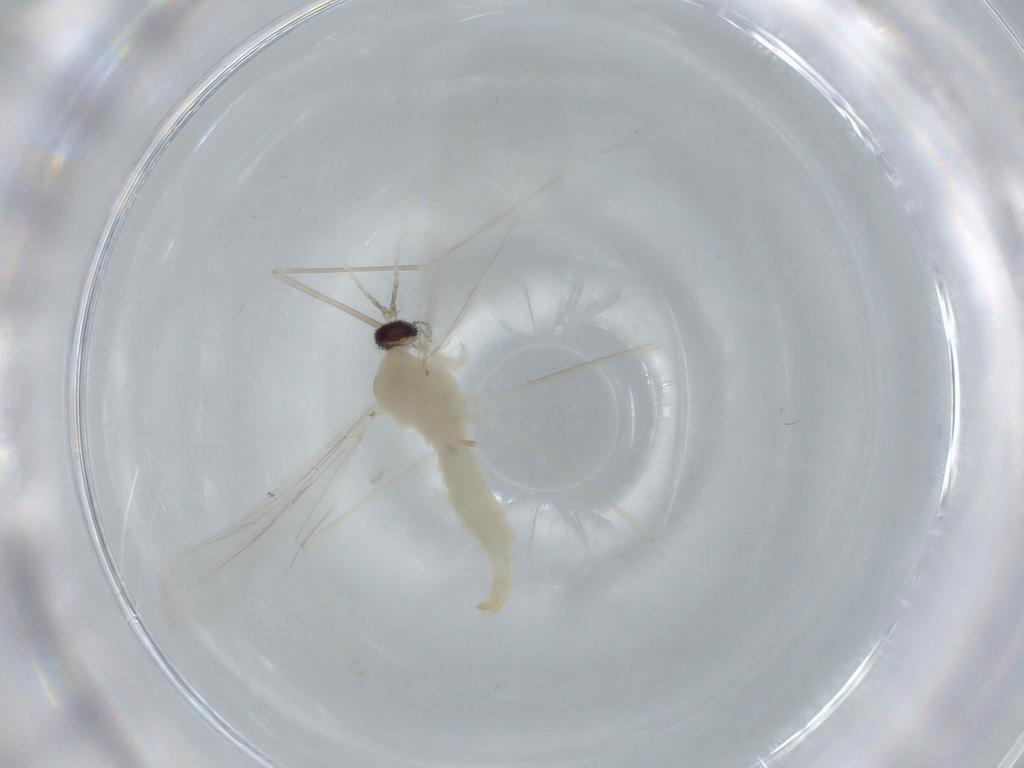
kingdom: Animalia
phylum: Arthropoda
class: Insecta
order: Diptera
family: Cecidomyiidae
